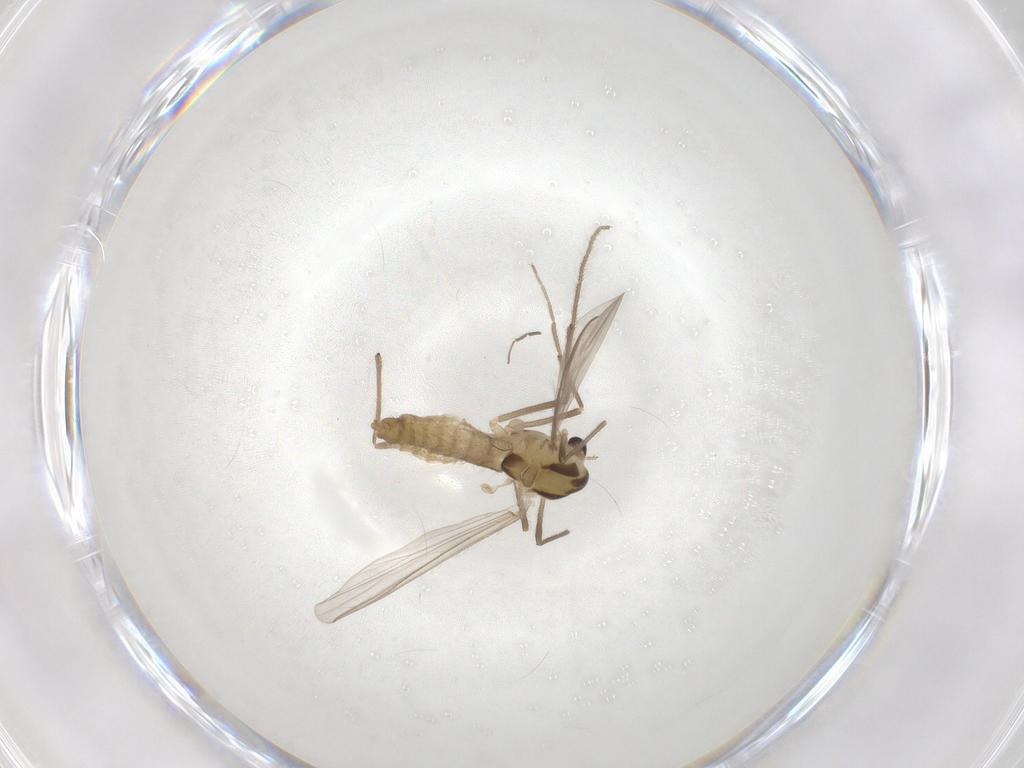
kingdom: Animalia
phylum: Arthropoda
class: Insecta
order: Diptera
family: Chironomidae
